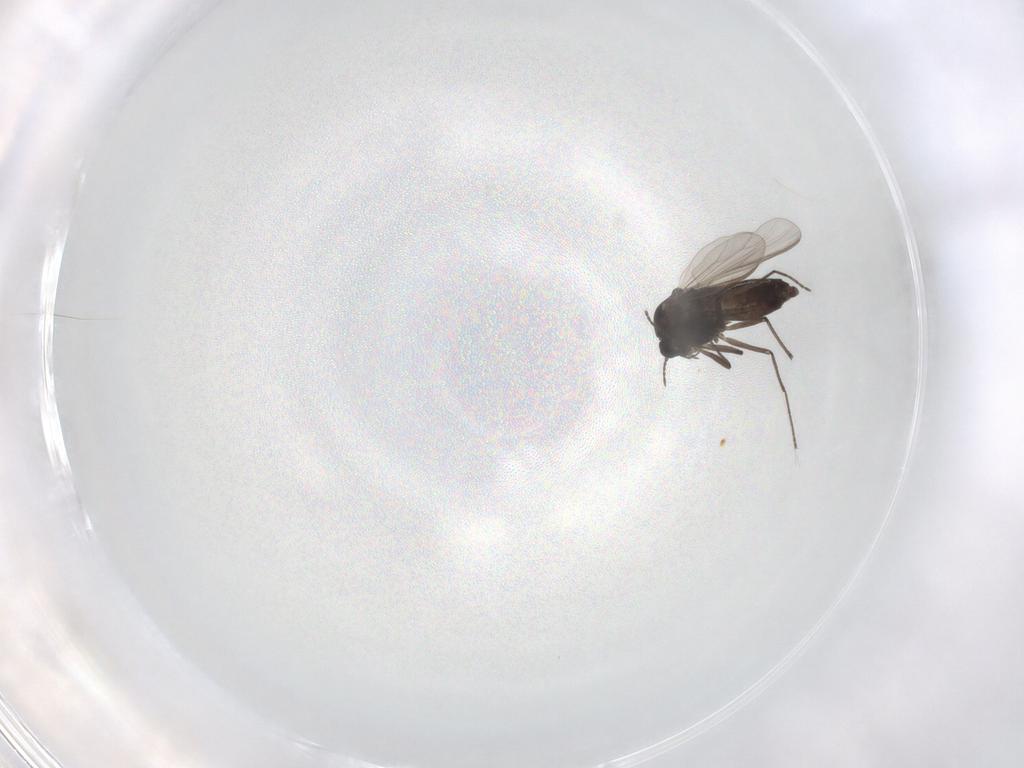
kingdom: Animalia
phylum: Arthropoda
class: Insecta
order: Diptera
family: Chironomidae
